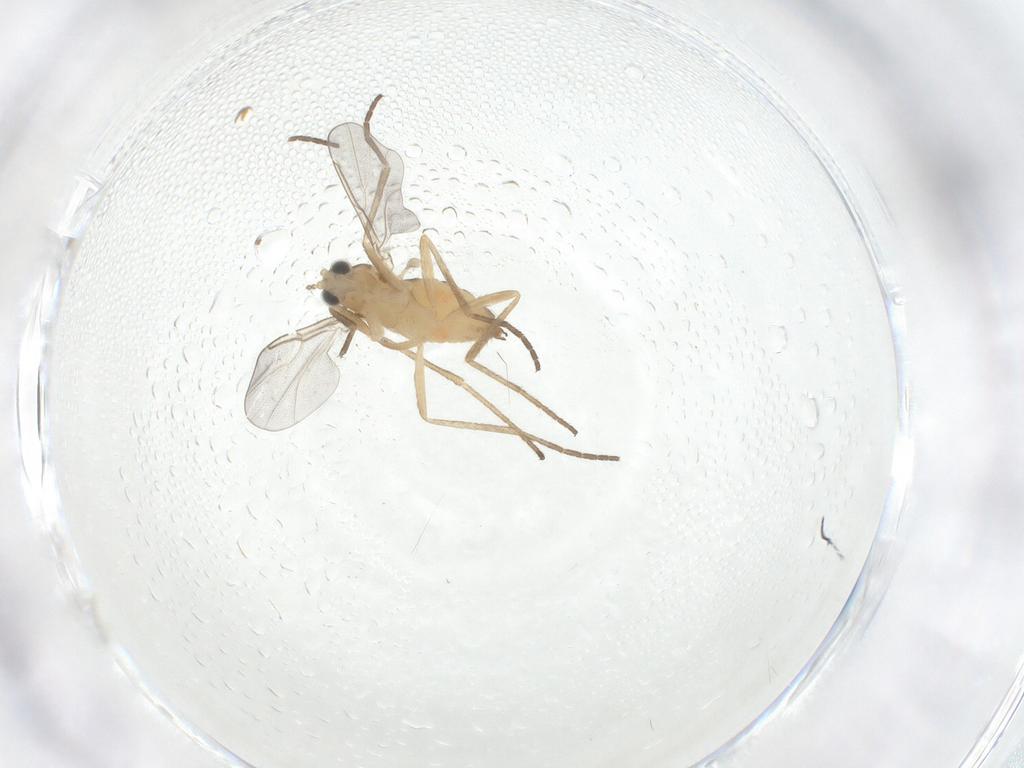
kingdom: Animalia
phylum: Arthropoda
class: Insecta
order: Diptera
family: Cecidomyiidae
